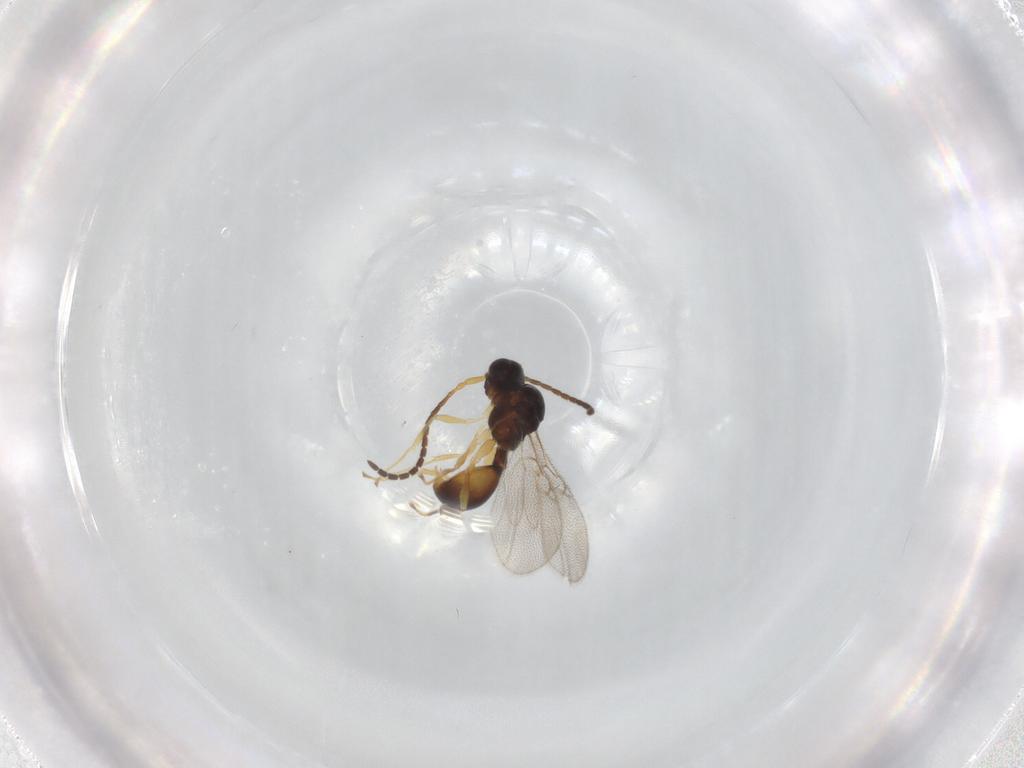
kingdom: Animalia
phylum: Arthropoda
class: Insecta
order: Hymenoptera
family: Diapriidae
